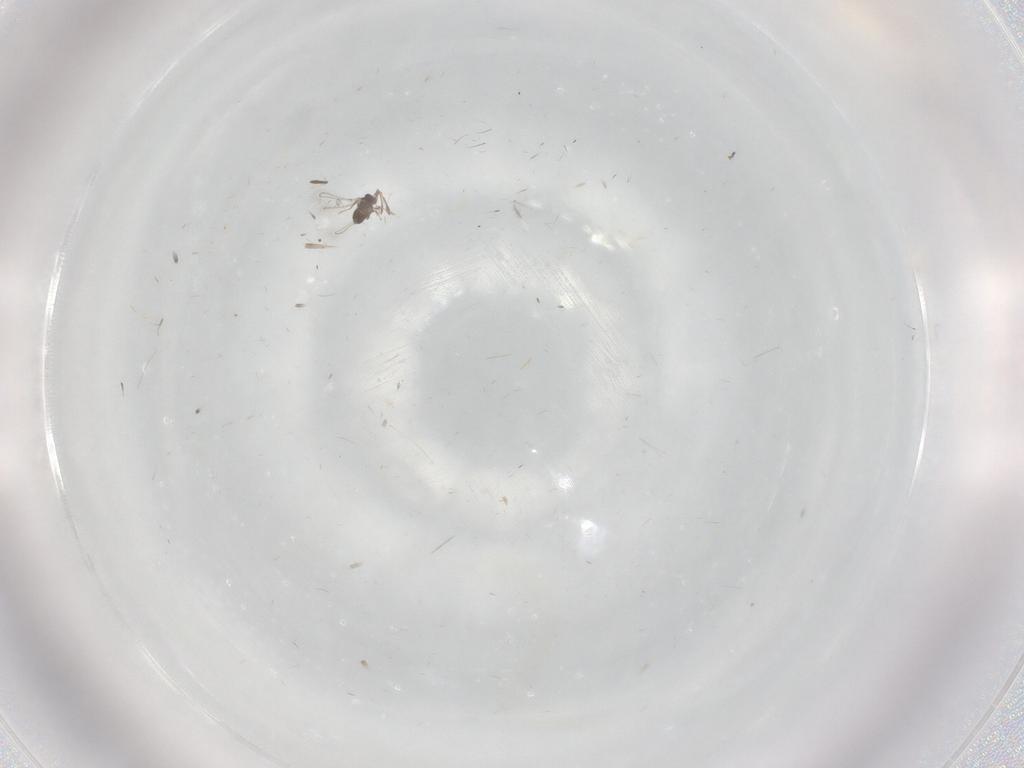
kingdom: Animalia
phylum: Arthropoda
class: Insecta
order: Hymenoptera
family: Mymaridae
